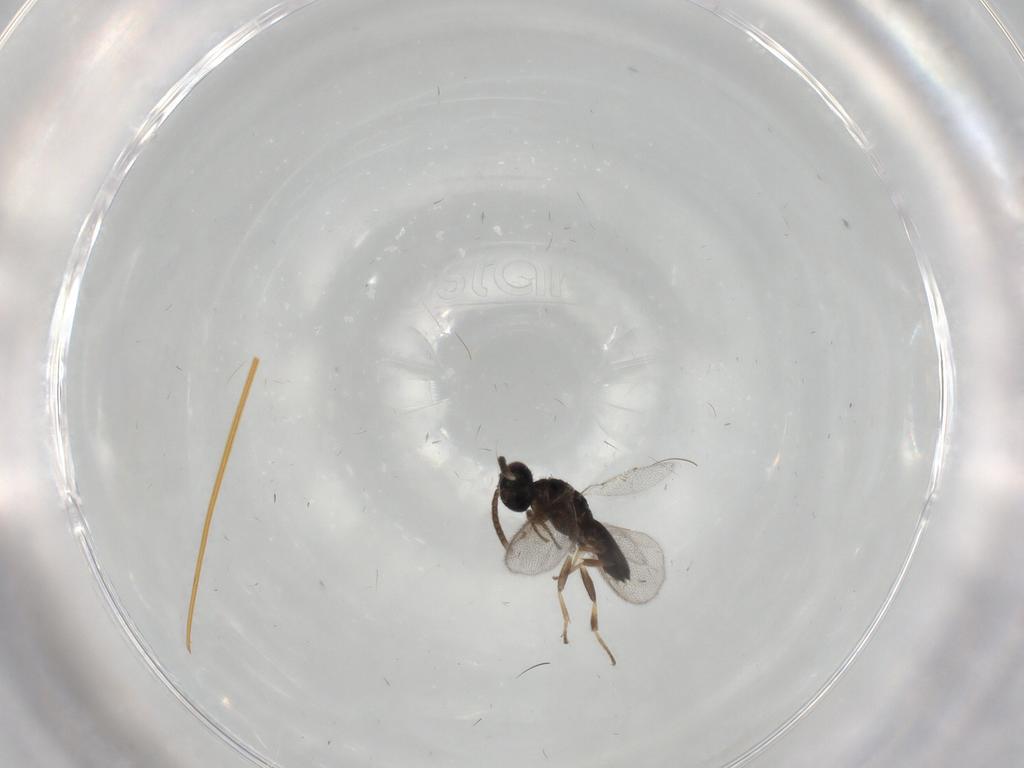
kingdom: Animalia
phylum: Arthropoda
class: Insecta
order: Hymenoptera
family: Eupelmidae
